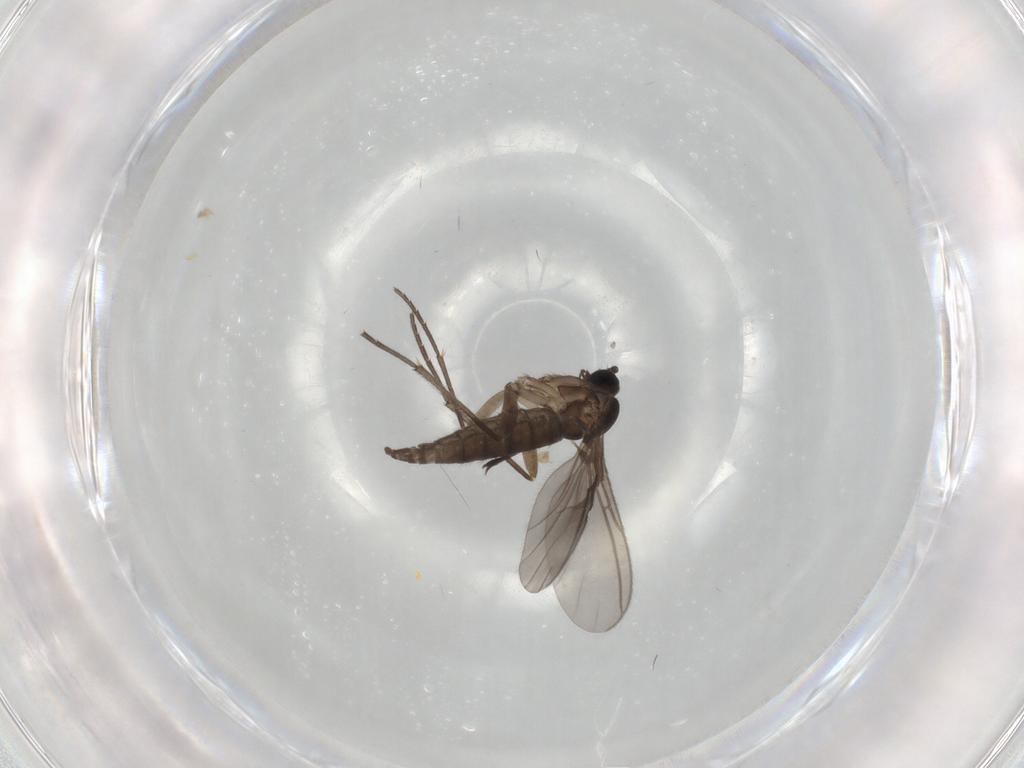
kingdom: Animalia
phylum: Arthropoda
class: Insecta
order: Diptera
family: Sciaridae
